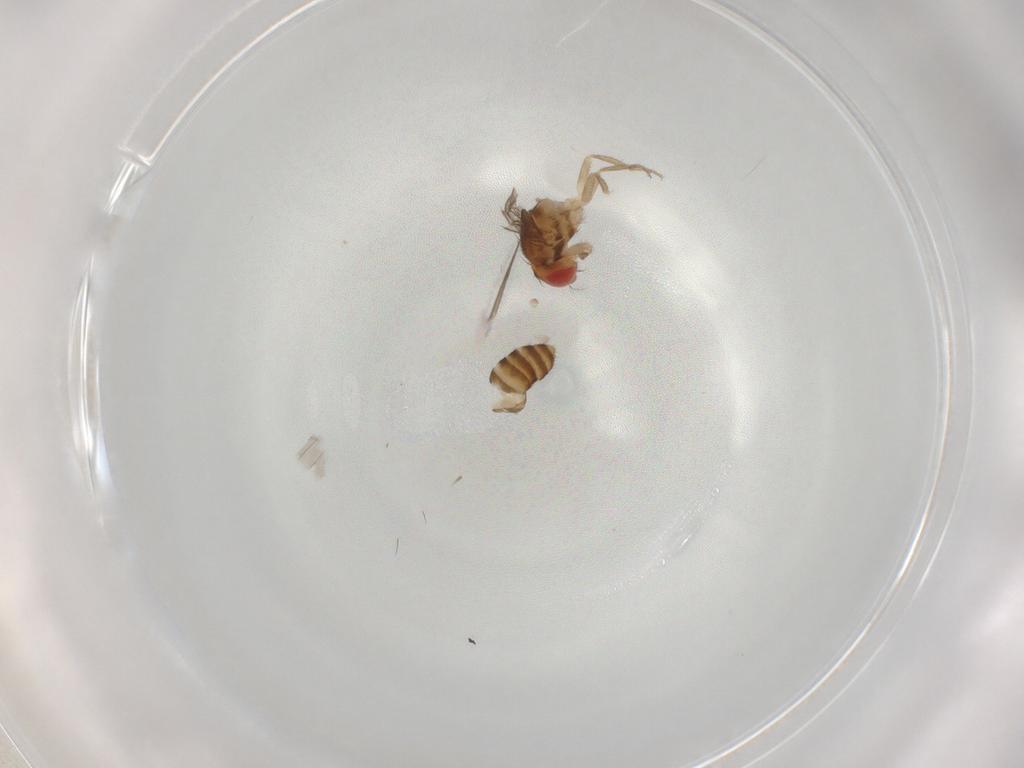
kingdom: Animalia
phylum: Arthropoda
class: Insecta
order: Diptera
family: Drosophilidae
